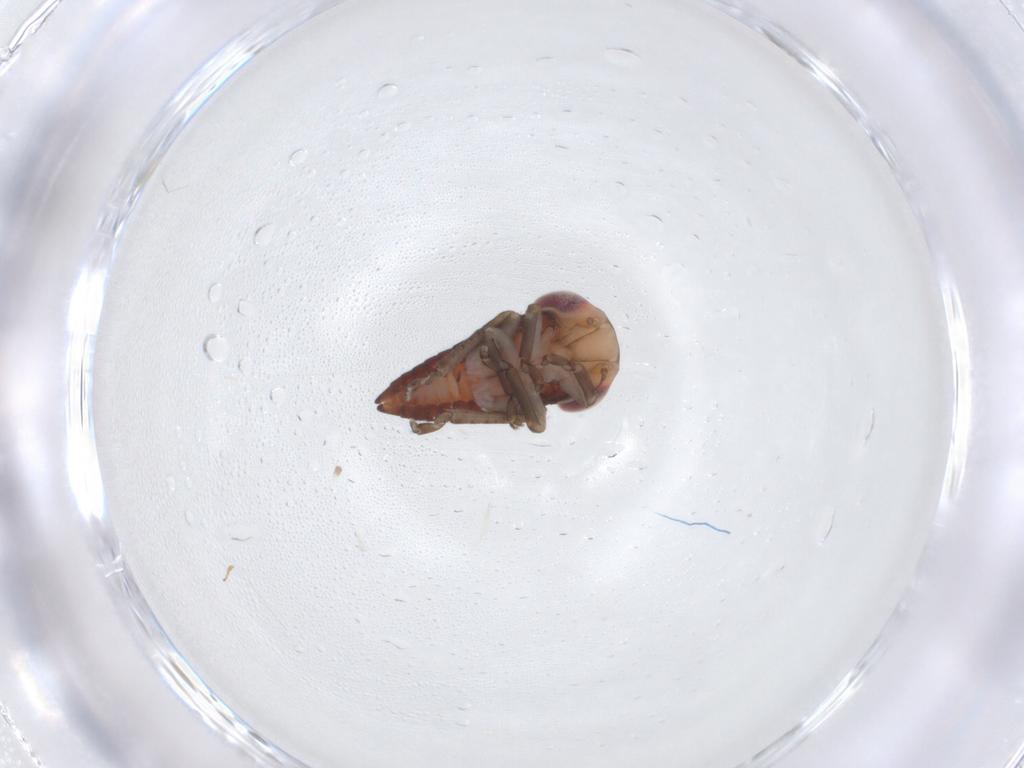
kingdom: Animalia
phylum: Arthropoda
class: Insecta
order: Hemiptera
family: Cicadellidae
